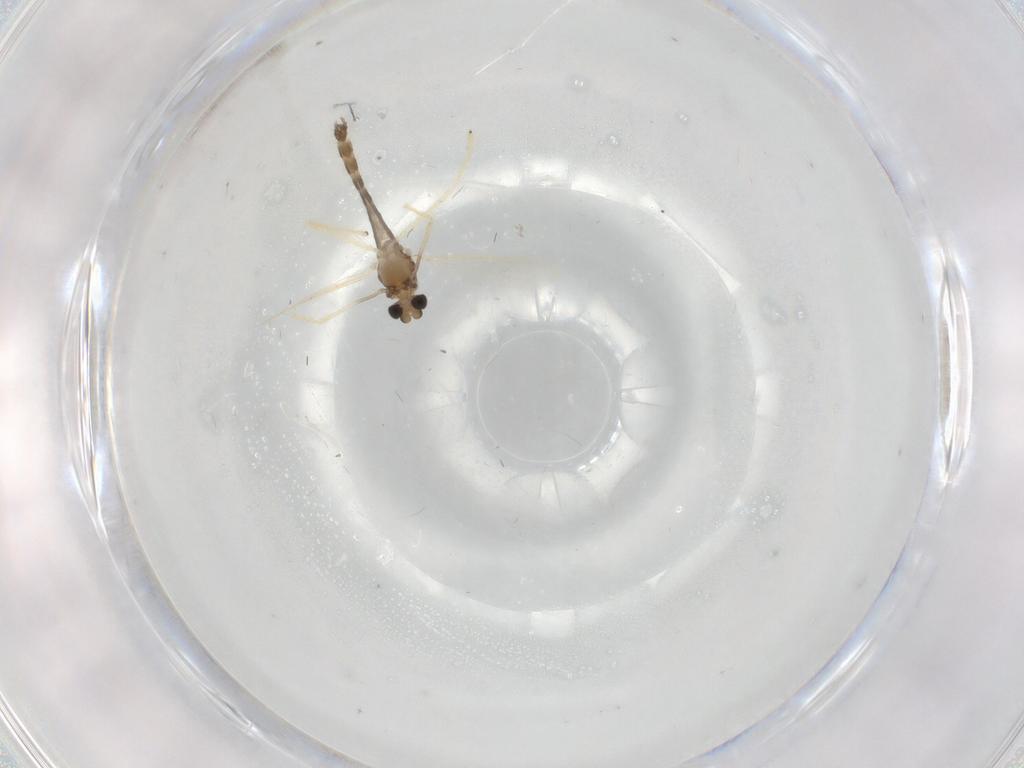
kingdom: Animalia
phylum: Arthropoda
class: Insecta
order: Diptera
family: Chironomidae
